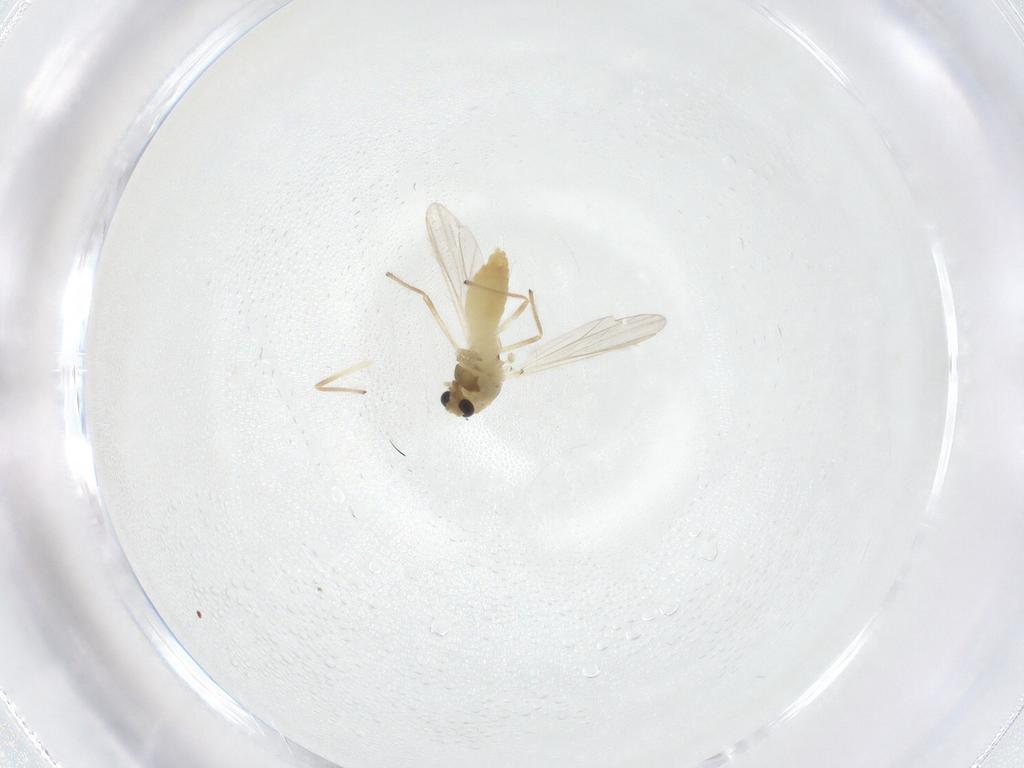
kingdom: Animalia
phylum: Arthropoda
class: Insecta
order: Diptera
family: Chironomidae
